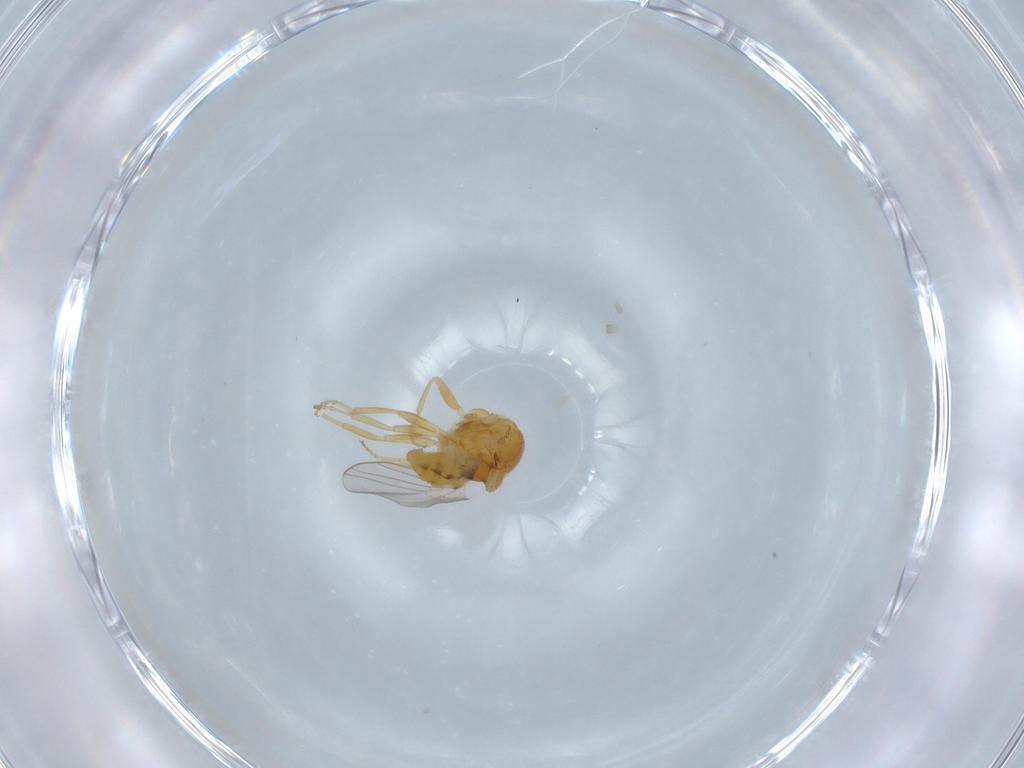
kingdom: Animalia
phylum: Arthropoda
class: Insecta
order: Diptera
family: Chloropidae
